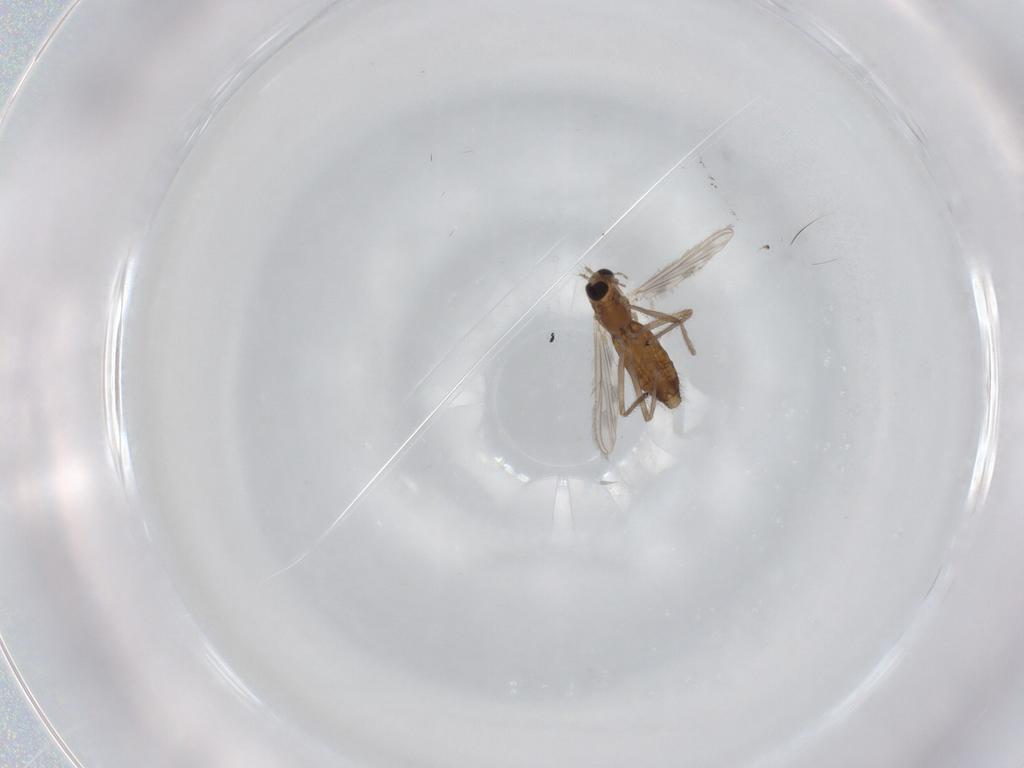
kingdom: Animalia
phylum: Arthropoda
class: Insecta
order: Diptera
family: Chironomidae
